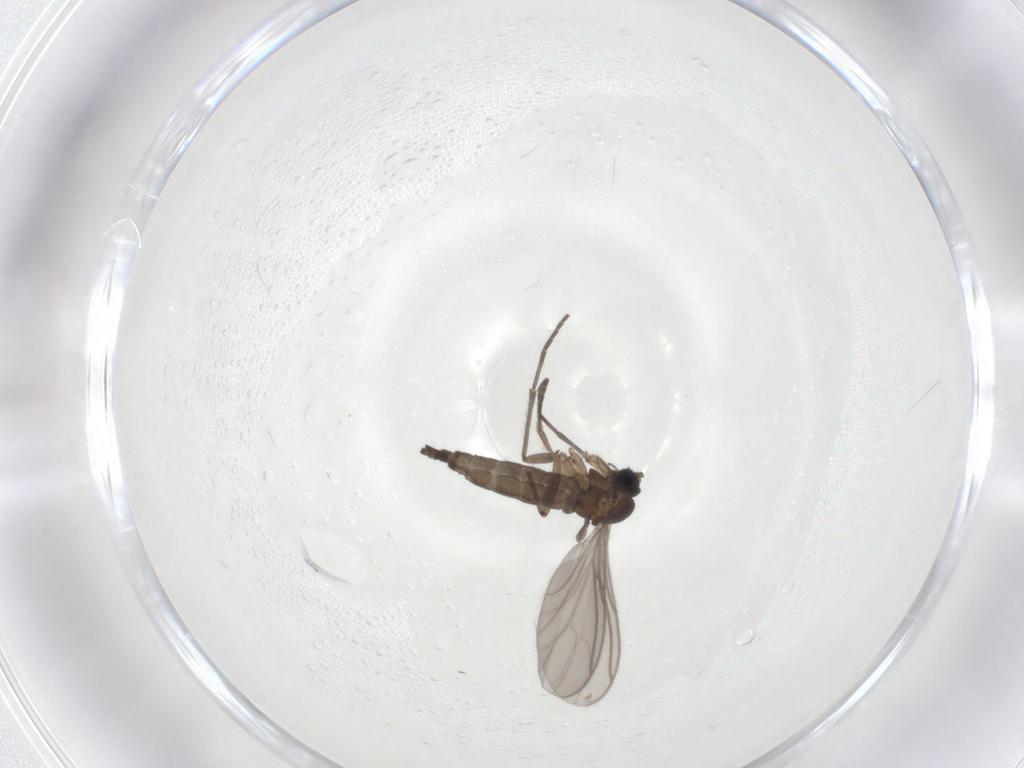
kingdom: Animalia
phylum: Arthropoda
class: Insecta
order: Diptera
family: Sciaridae
